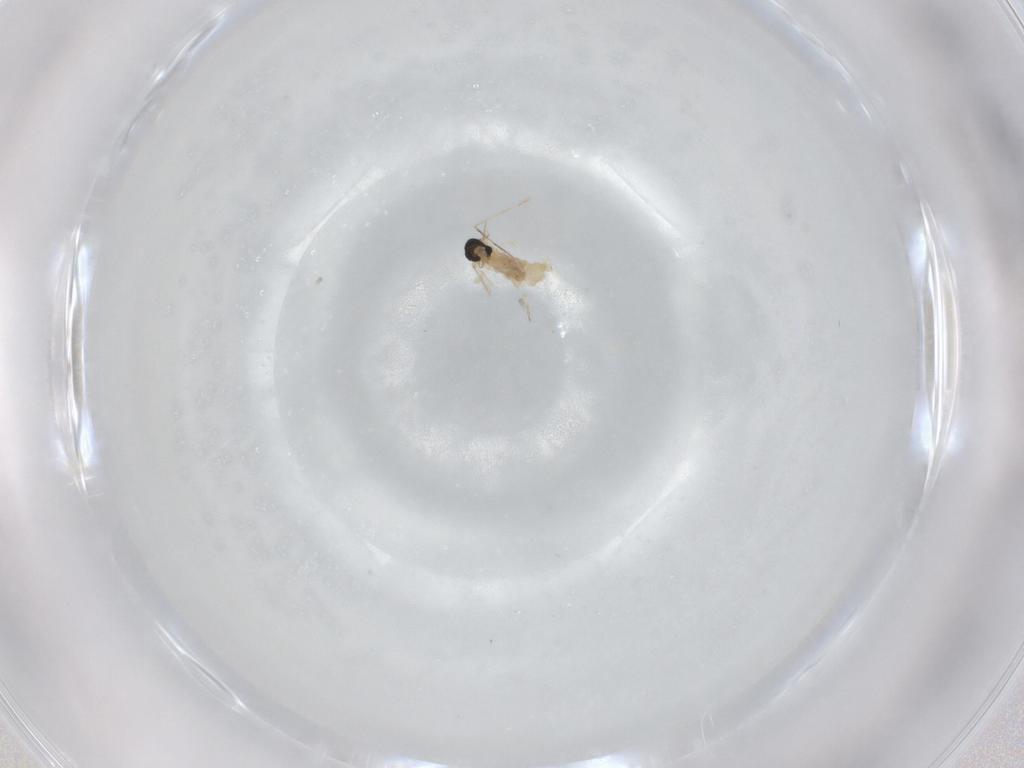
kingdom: Animalia
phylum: Arthropoda
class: Insecta
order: Diptera
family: Cecidomyiidae
